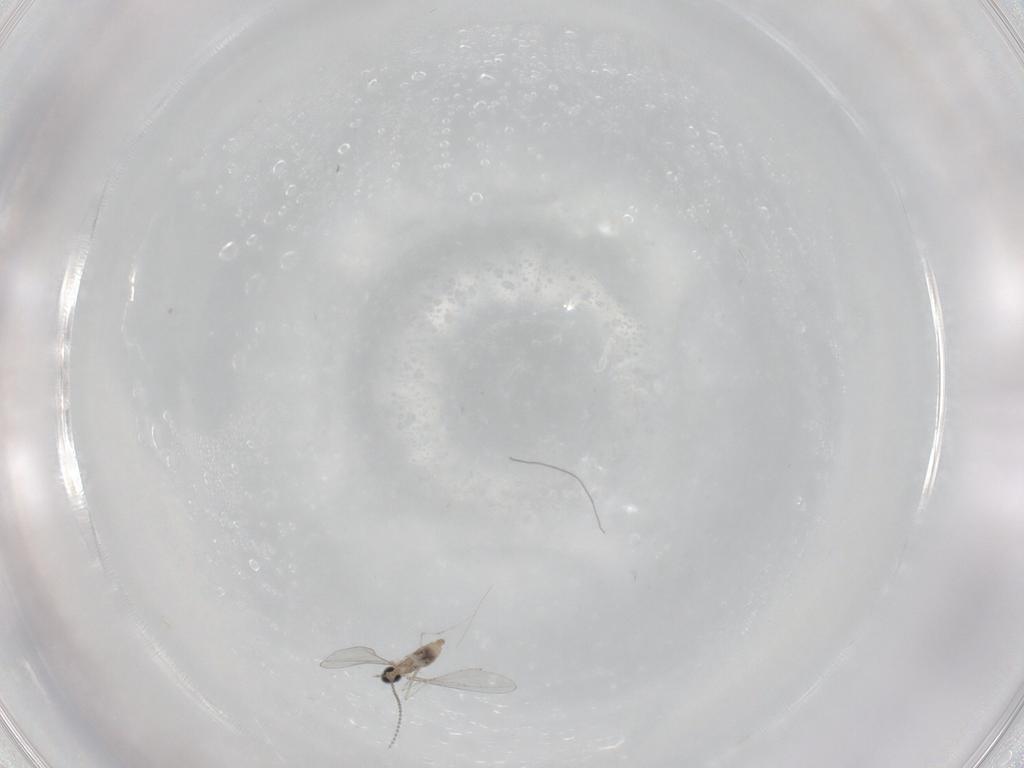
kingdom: Animalia
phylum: Arthropoda
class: Insecta
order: Diptera
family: Cecidomyiidae
